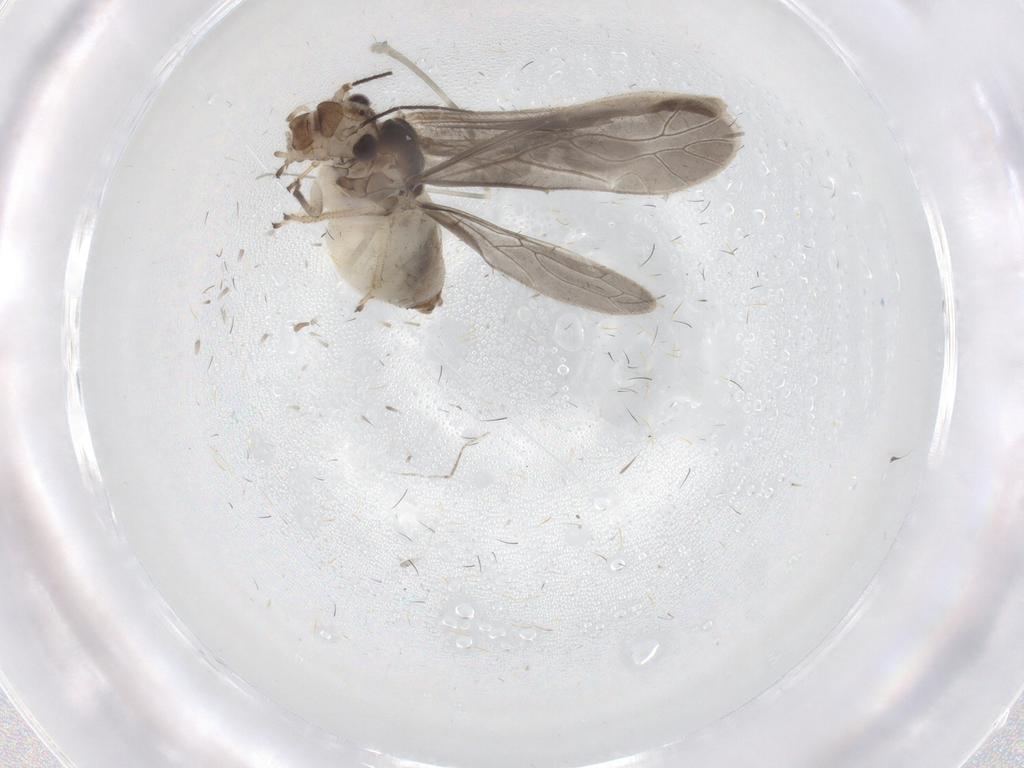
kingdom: Animalia
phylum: Arthropoda
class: Insecta
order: Psocodea
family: Caeciliusidae
